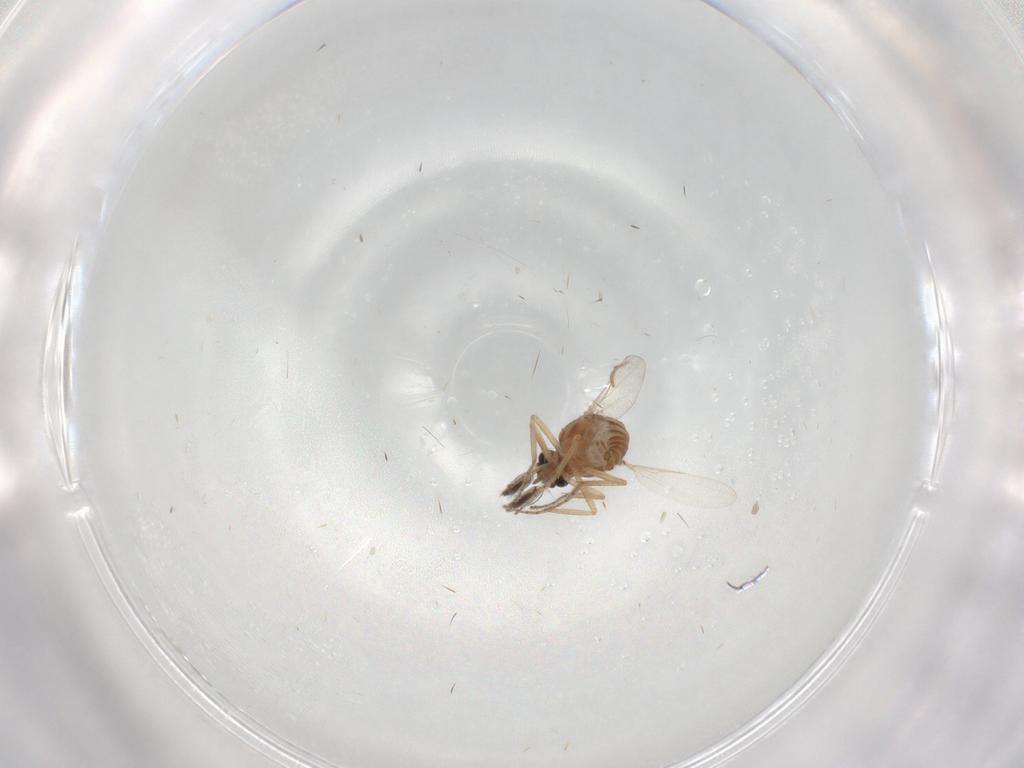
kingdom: Animalia
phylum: Arthropoda
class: Insecta
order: Diptera
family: Ceratopogonidae
